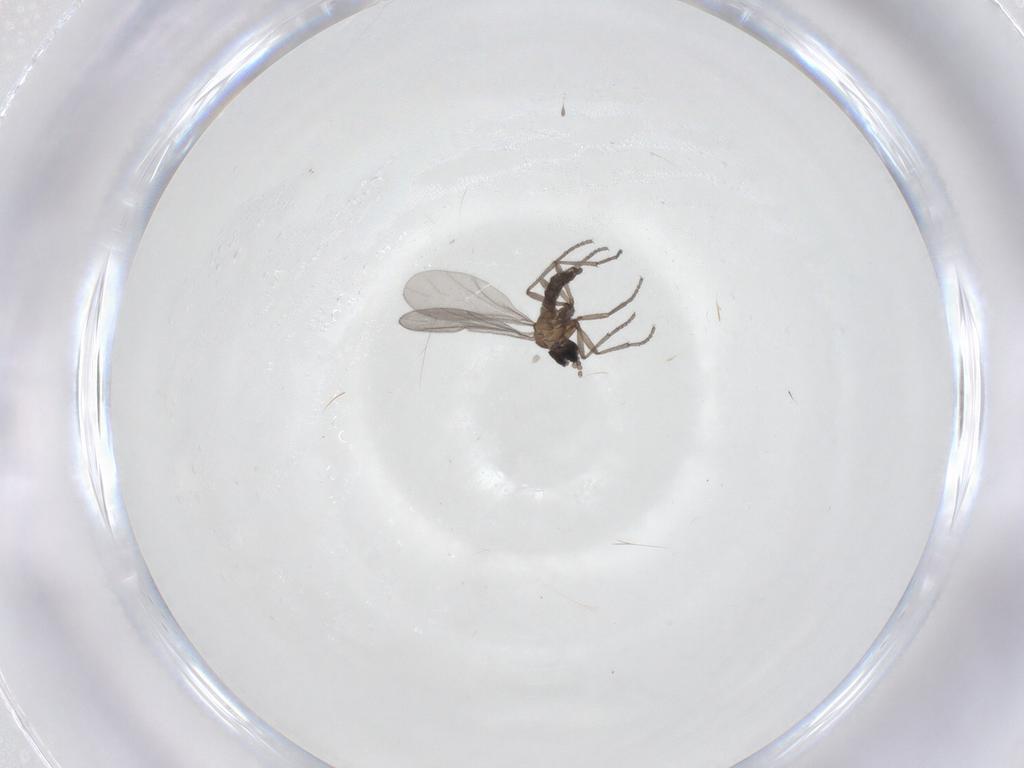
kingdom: Animalia
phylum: Arthropoda
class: Insecta
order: Diptera
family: Sciaridae
